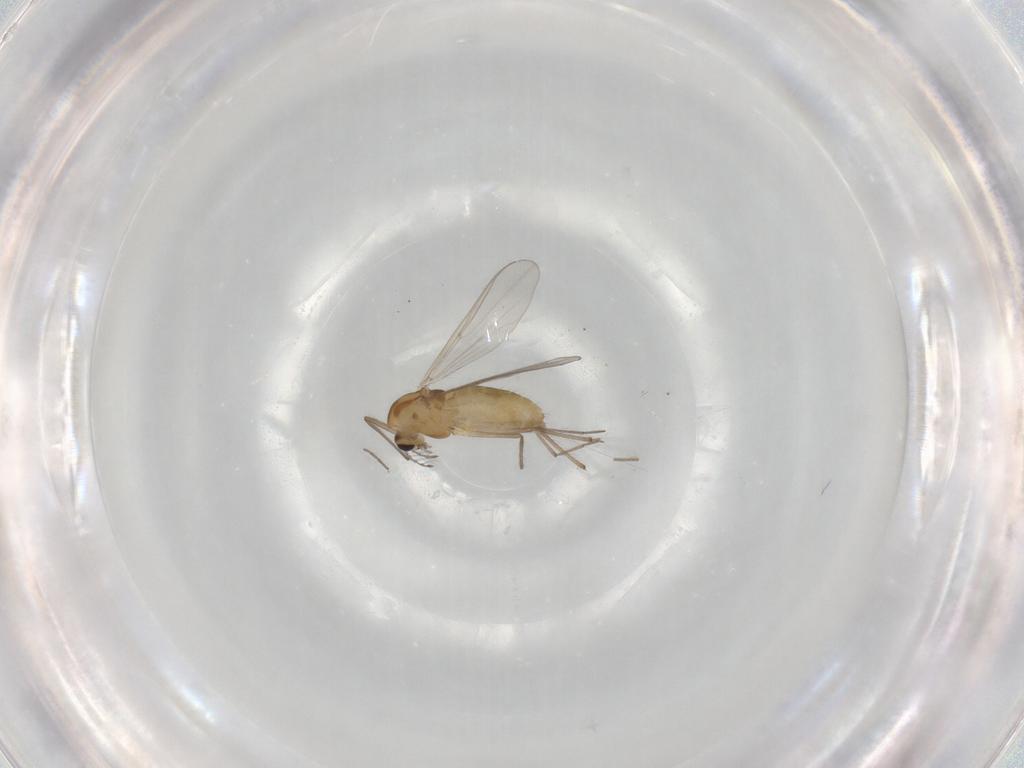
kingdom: Animalia
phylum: Arthropoda
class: Insecta
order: Diptera
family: Chironomidae
